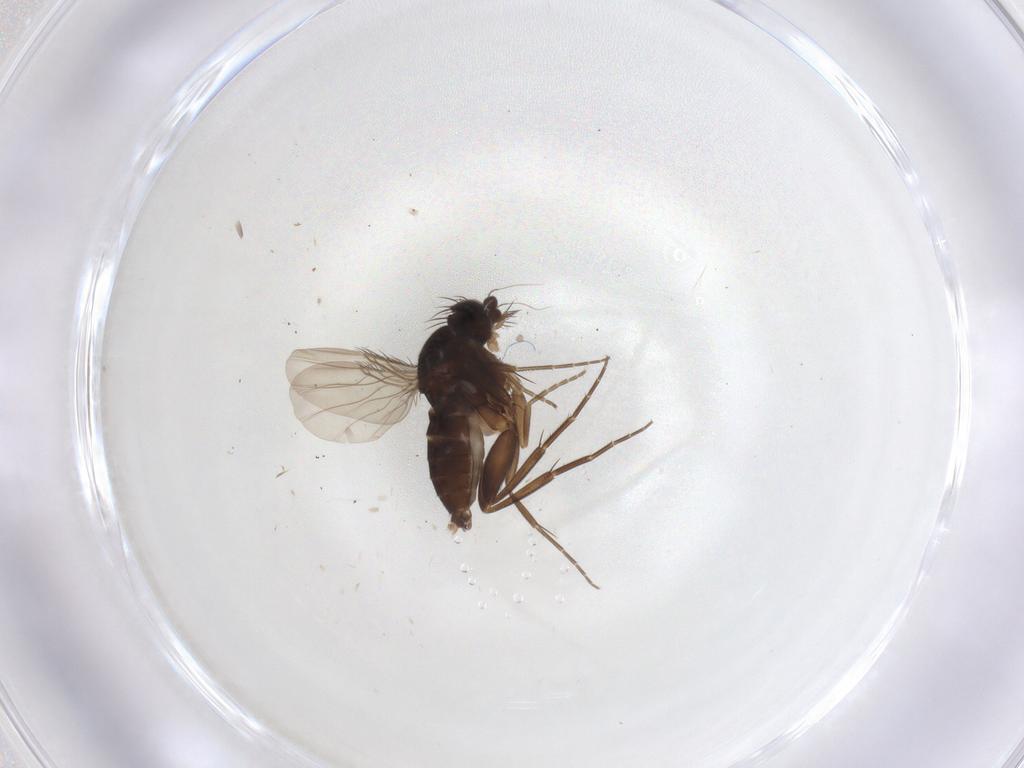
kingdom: Animalia
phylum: Arthropoda
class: Insecta
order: Diptera
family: Phoridae
